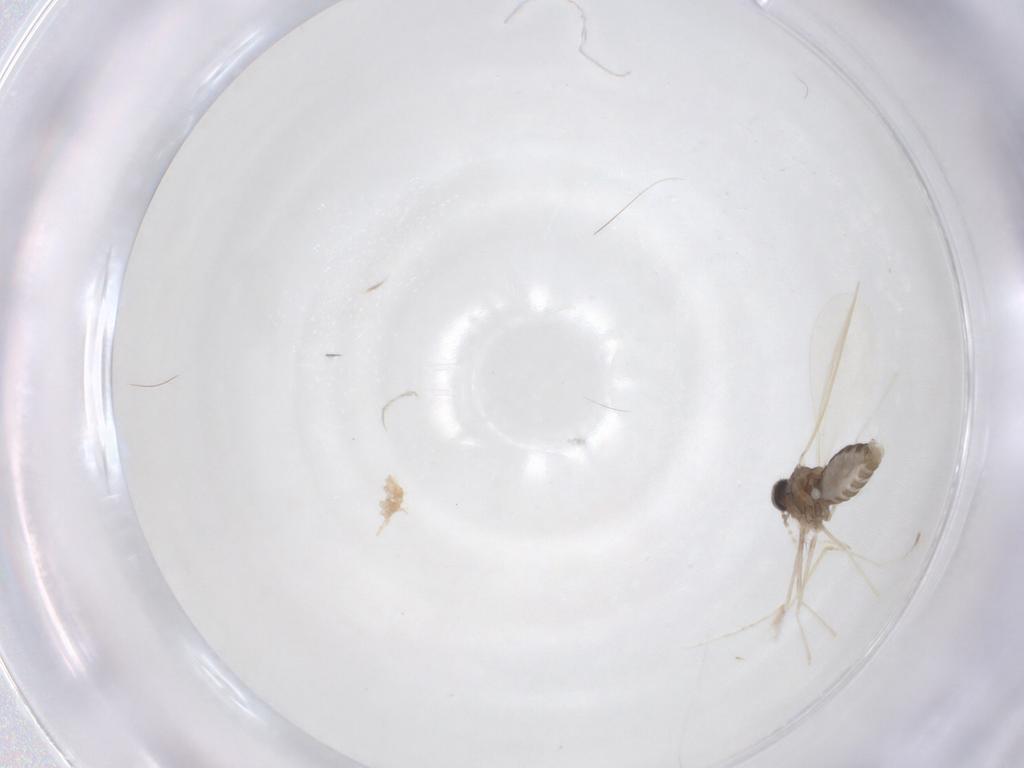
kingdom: Animalia
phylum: Arthropoda
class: Insecta
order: Diptera
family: Cecidomyiidae
